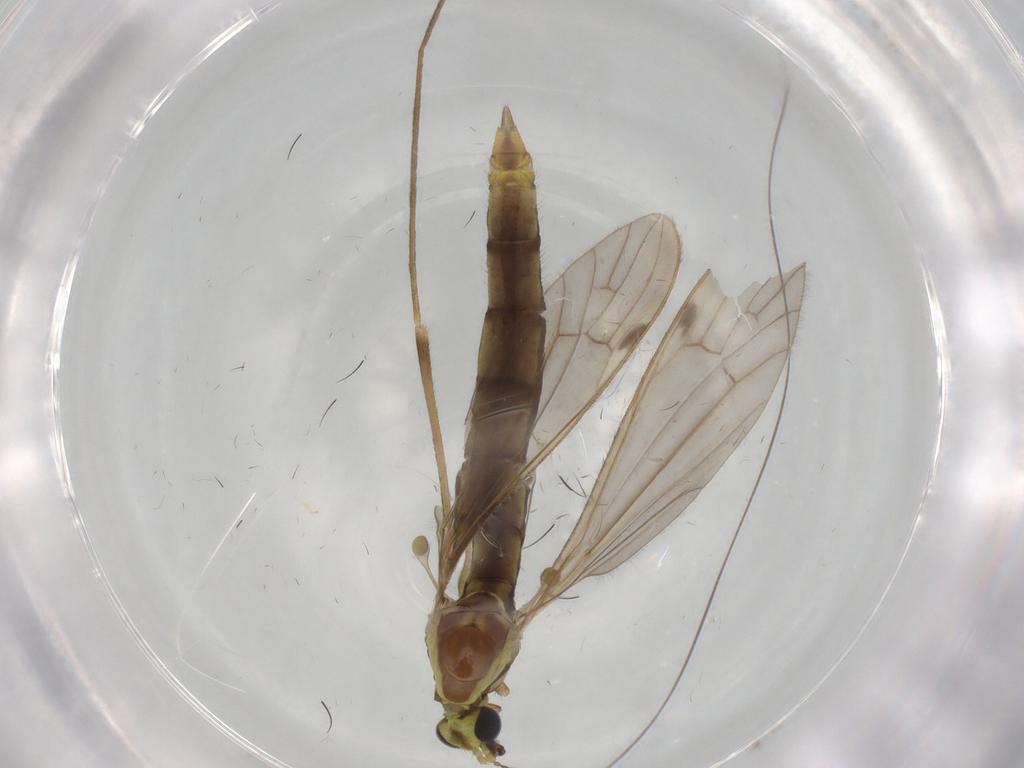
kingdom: Animalia
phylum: Arthropoda
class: Insecta
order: Diptera
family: Limoniidae
